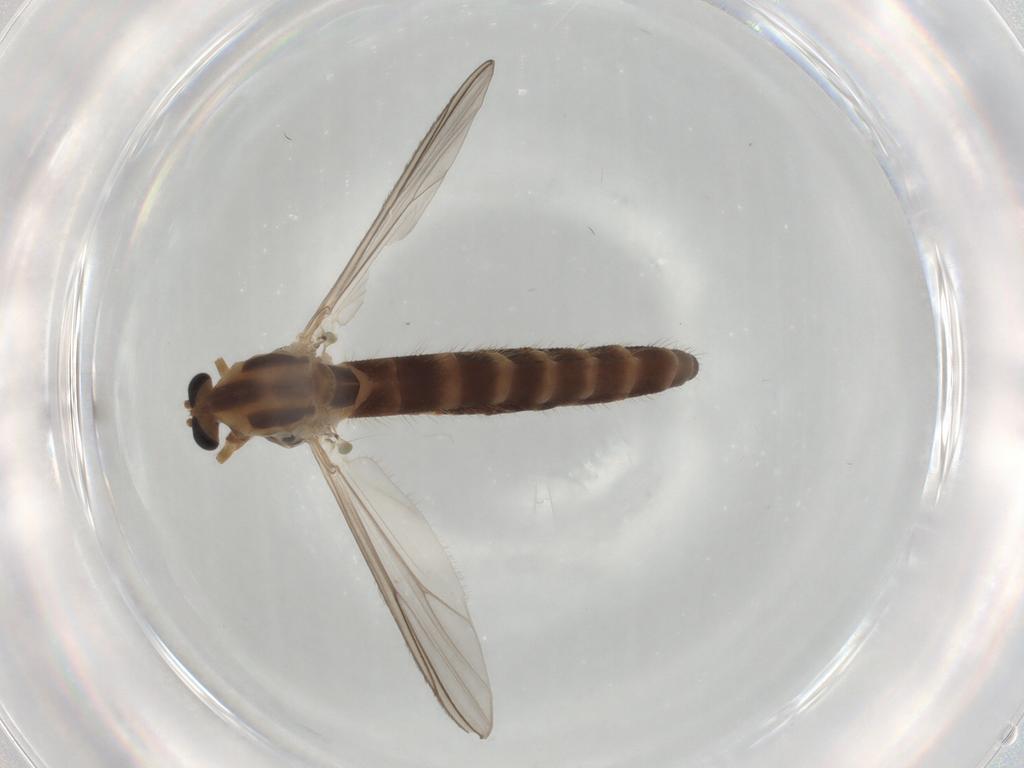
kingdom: Animalia
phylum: Arthropoda
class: Insecta
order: Diptera
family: Chironomidae
